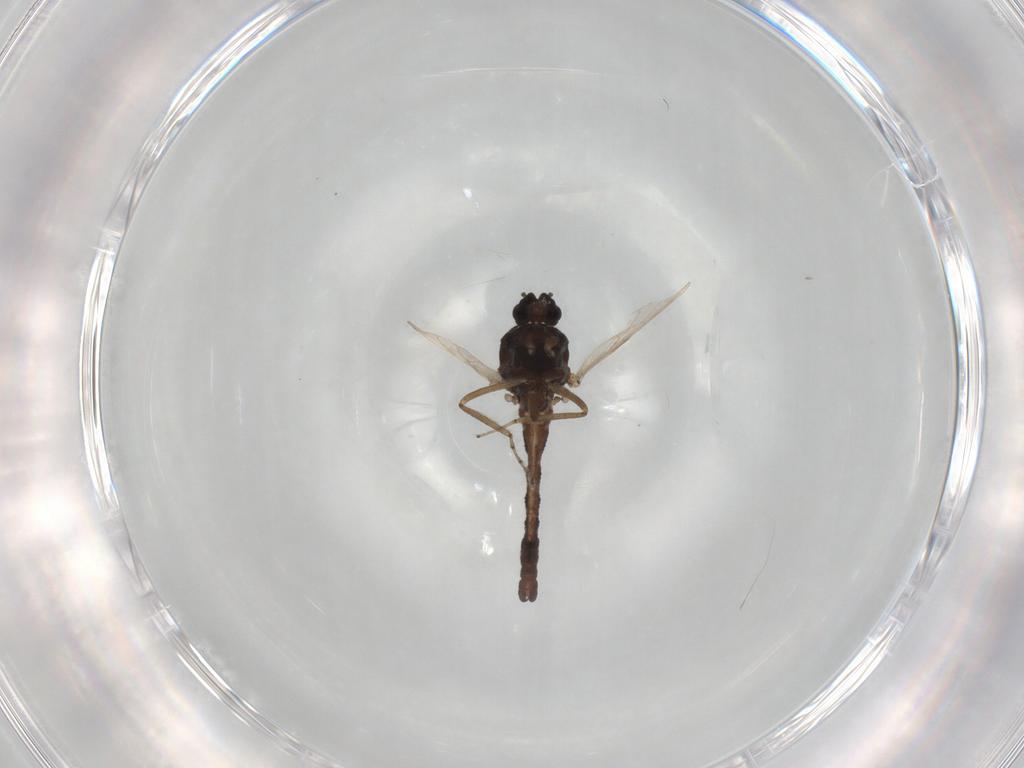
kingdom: Animalia
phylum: Arthropoda
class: Insecta
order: Diptera
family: Ceratopogonidae
